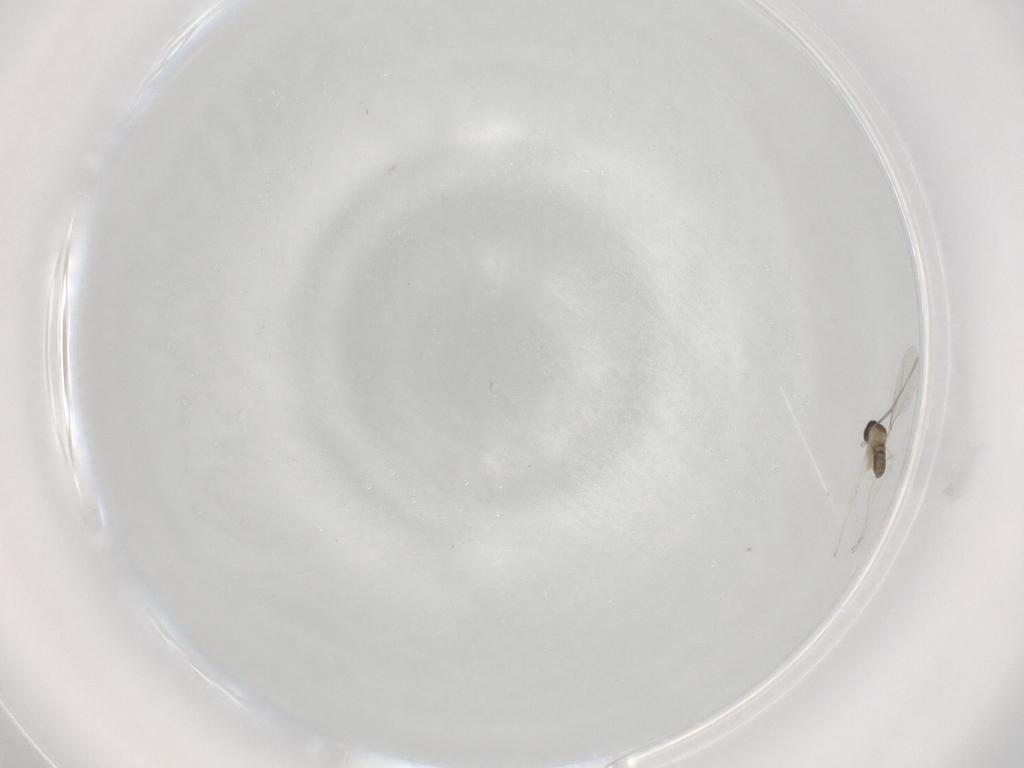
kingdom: Animalia
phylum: Arthropoda
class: Insecta
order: Diptera
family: Cecidomyiidae
